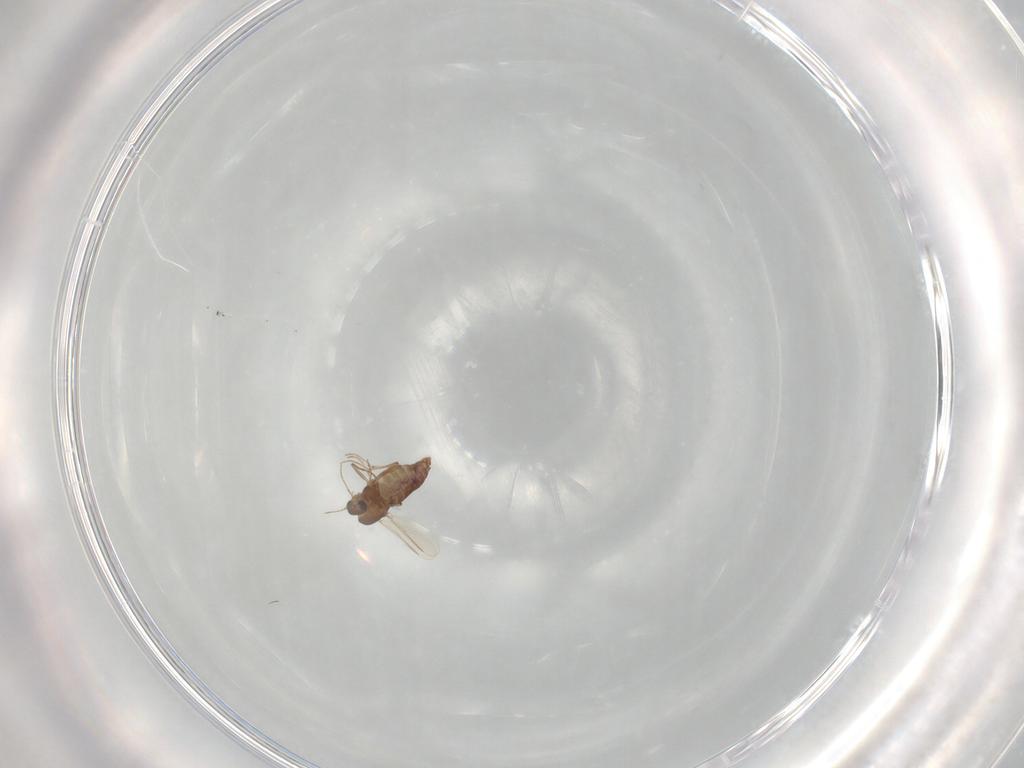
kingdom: Animalia
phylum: Arthropoda
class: Insecta
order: Diptera
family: Chironomidae
